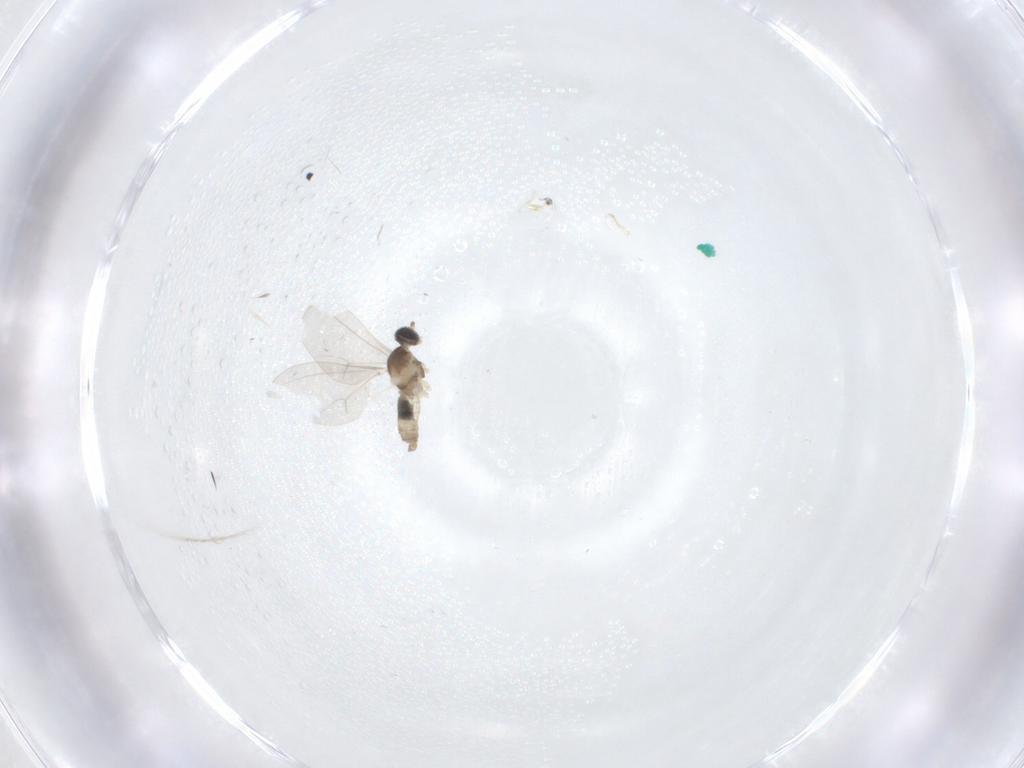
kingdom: Animalia
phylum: Arthropoda
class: Insecta
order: Diptera
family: Cecidomyiidae
